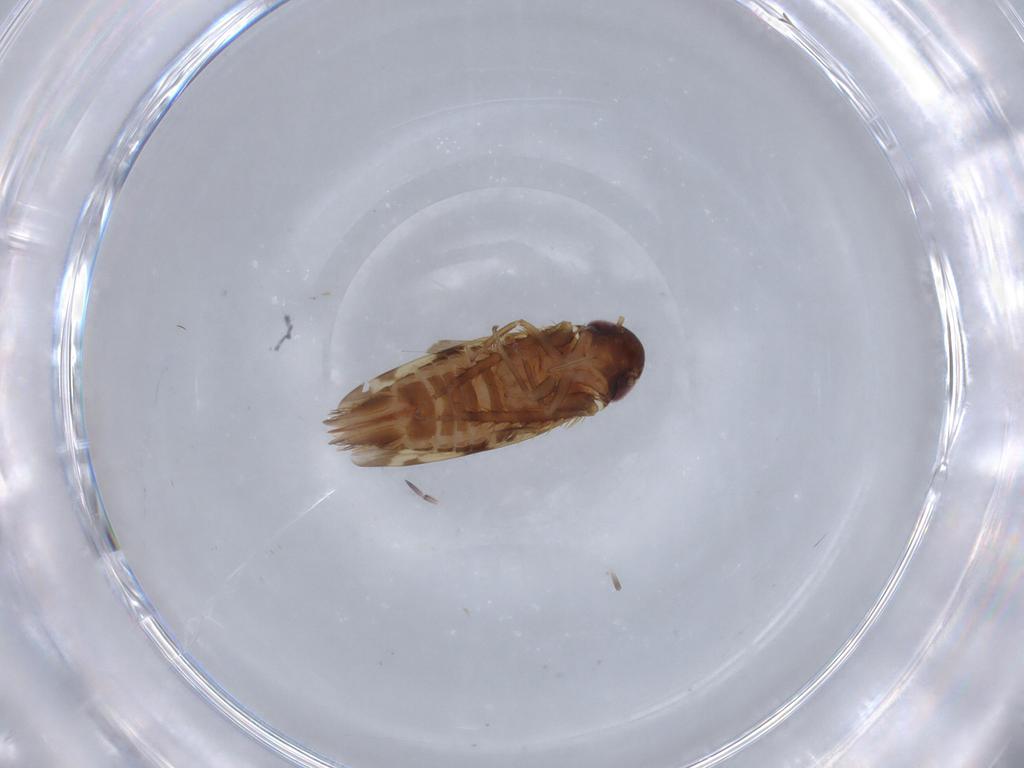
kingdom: Animalia
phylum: Arthropoda
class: Insecta
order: Hemiptera
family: Cicadellidae
